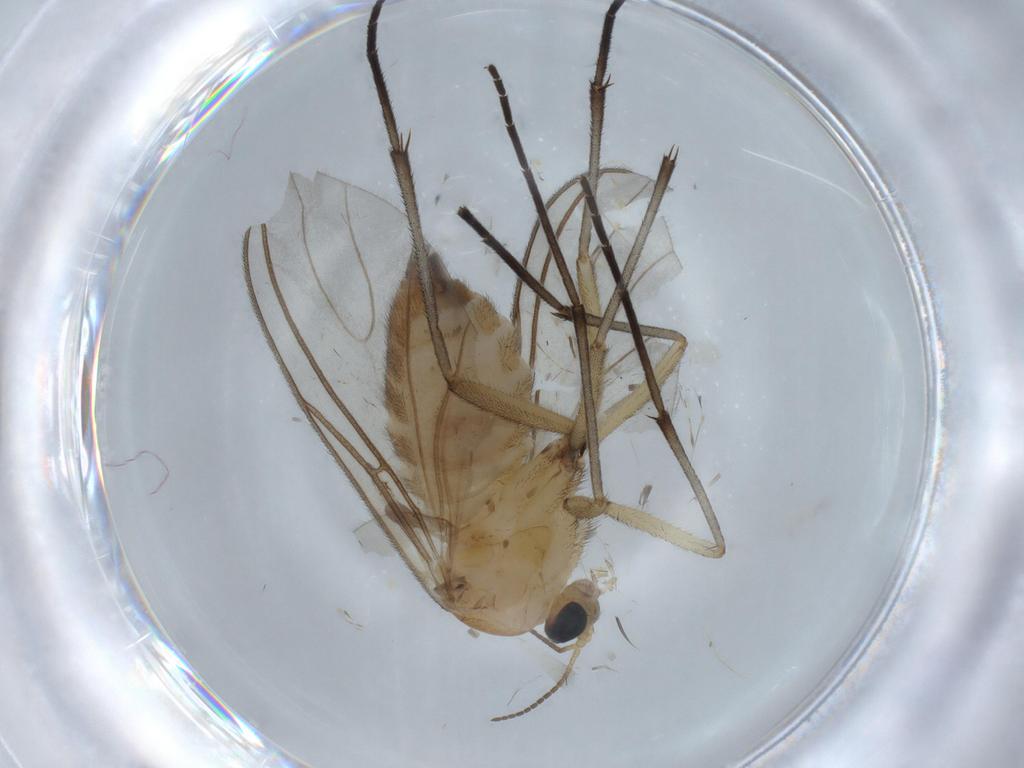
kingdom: Animalia
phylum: Arthropoda
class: Insecta
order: Diptera
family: Sciaridae
